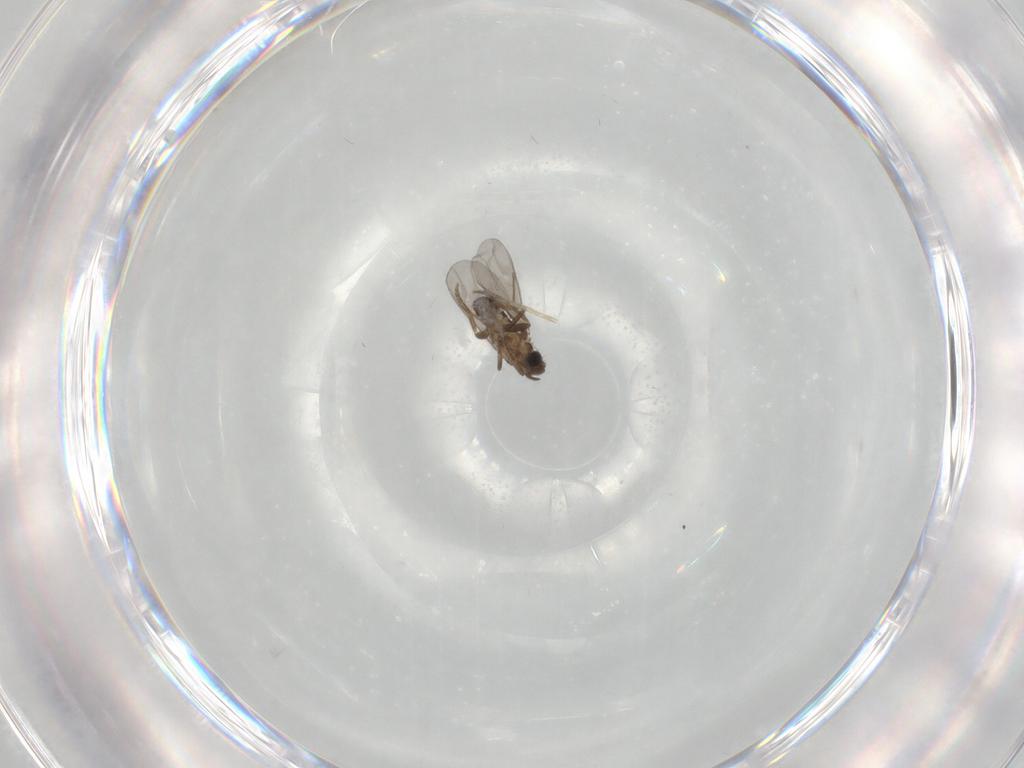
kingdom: Animalia
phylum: Arthropoda
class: Insecta
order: Diptera
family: Chironomidae
